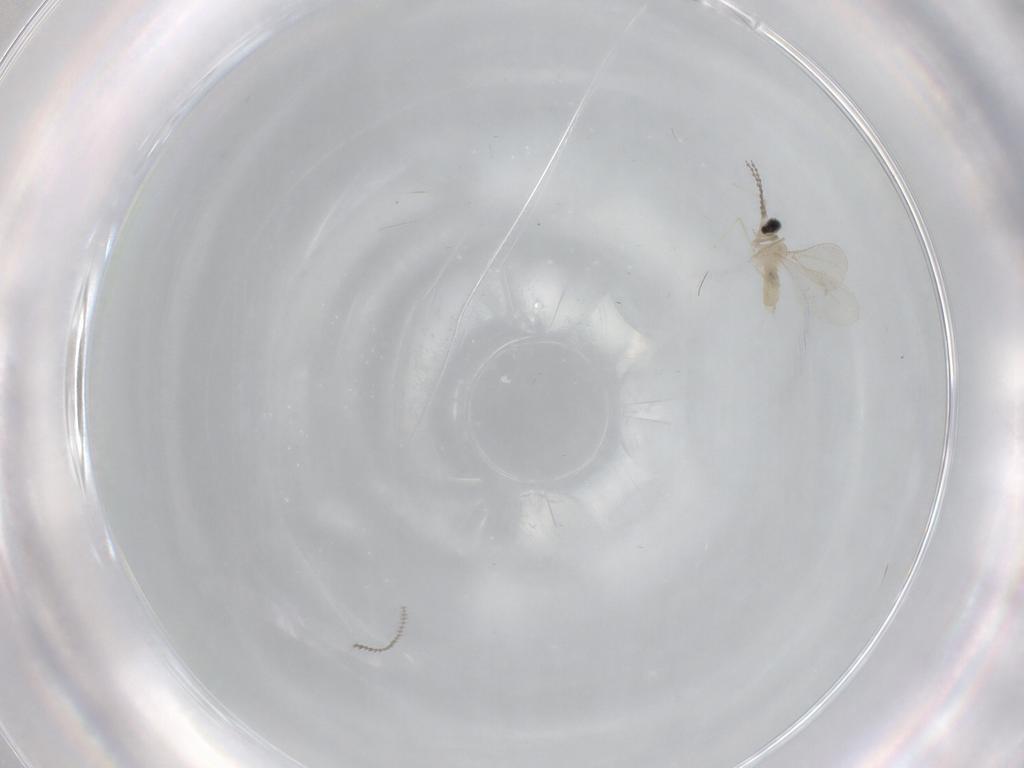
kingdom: Animalia
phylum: Arthropoda
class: Insecta
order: Diptera
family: Cecidomyiidae
